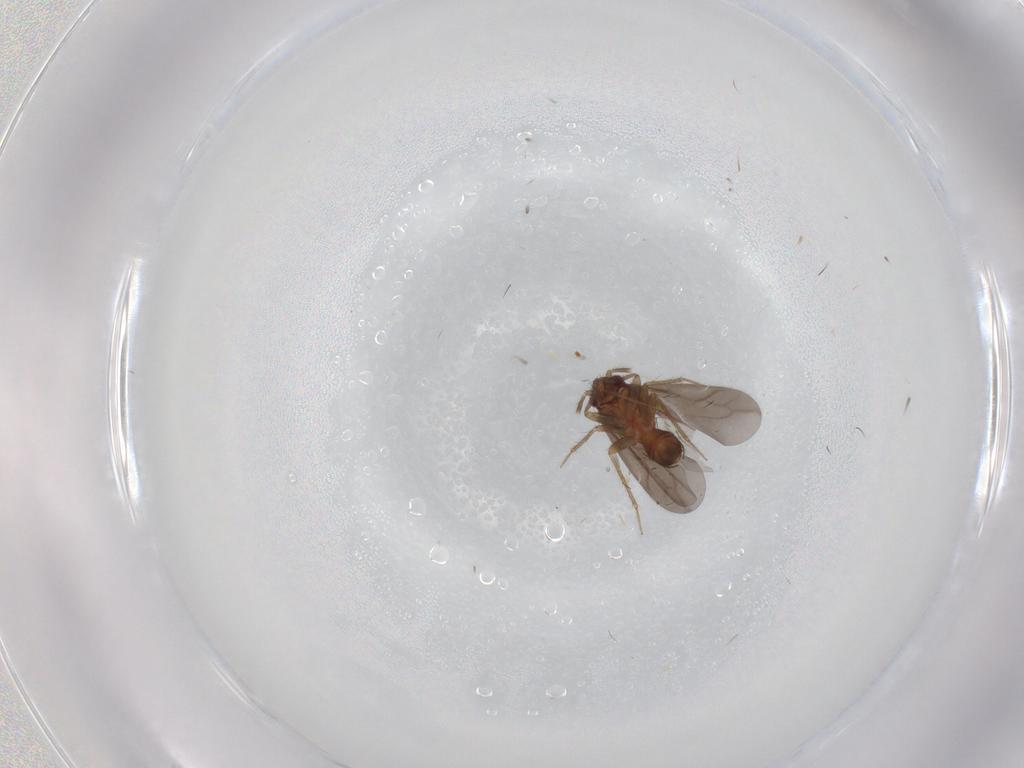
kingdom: Animalia
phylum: Arthropoda
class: Insecta
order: Hemiptera
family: Ceratocombidae
